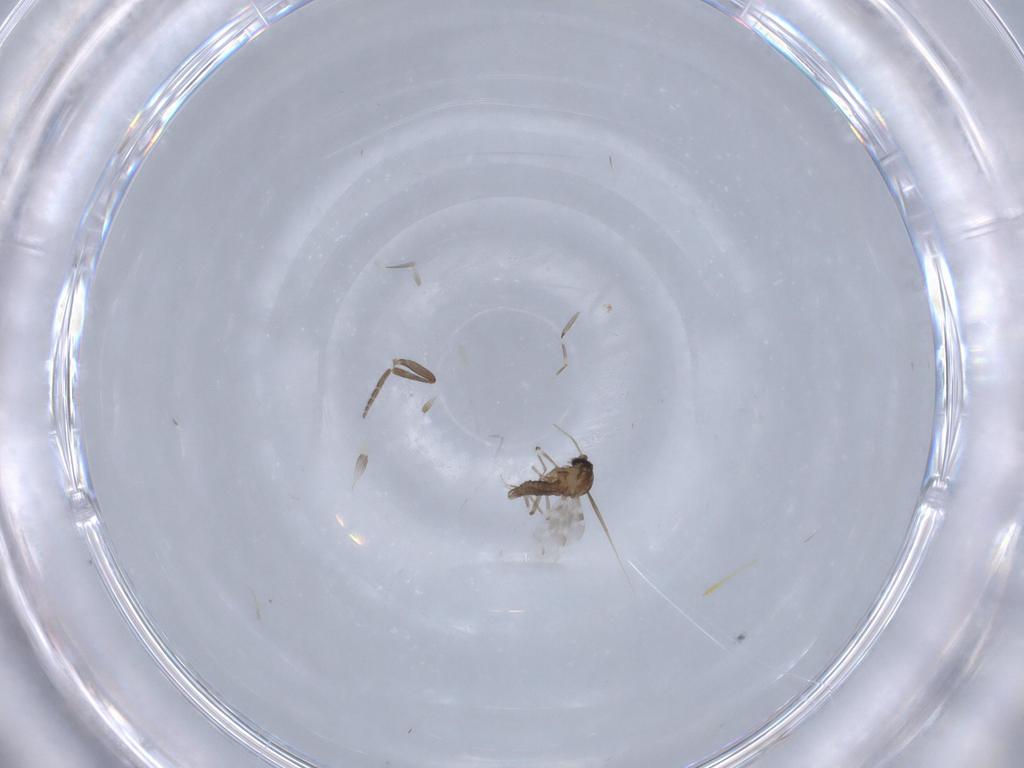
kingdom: Animalia
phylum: Arthropoda
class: Insecta
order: Diptera
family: Ceratopogonidae
